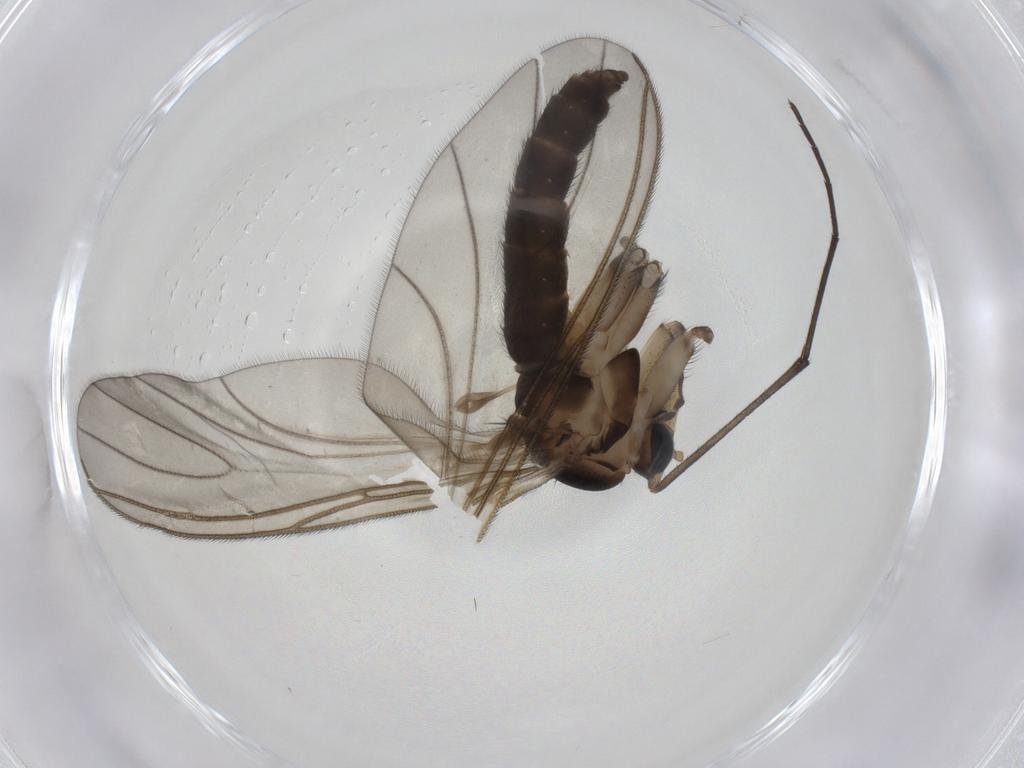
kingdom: Animalia
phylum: Arthropoda
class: Insecta
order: Diptera
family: Sciaridae
